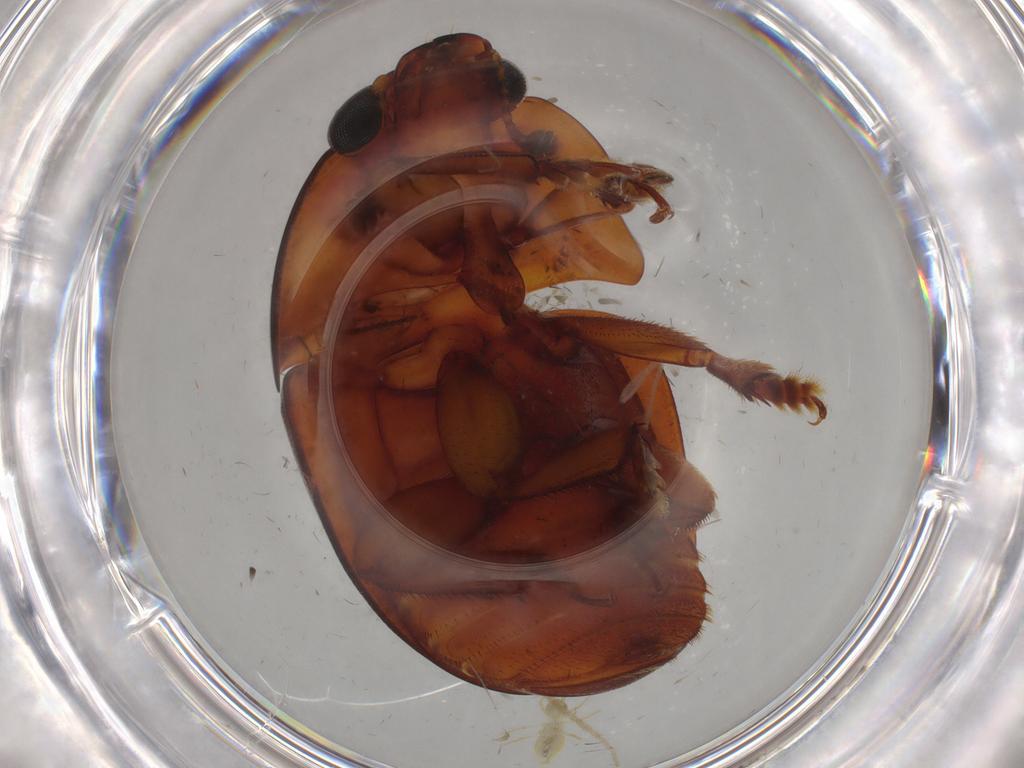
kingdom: Animalia
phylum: Arthropoda
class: Insecta
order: Coleoptera
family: Nitidulidae
